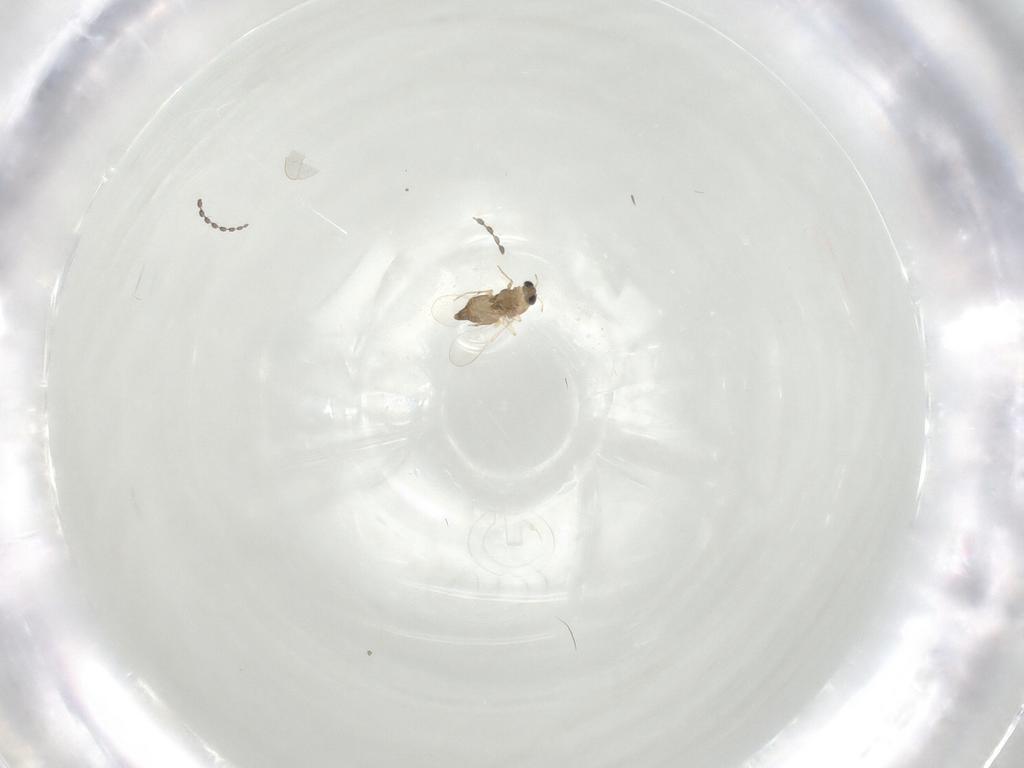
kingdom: Animalia
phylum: Arthropoda
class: Insecta
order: Diptera
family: Chironomidae
